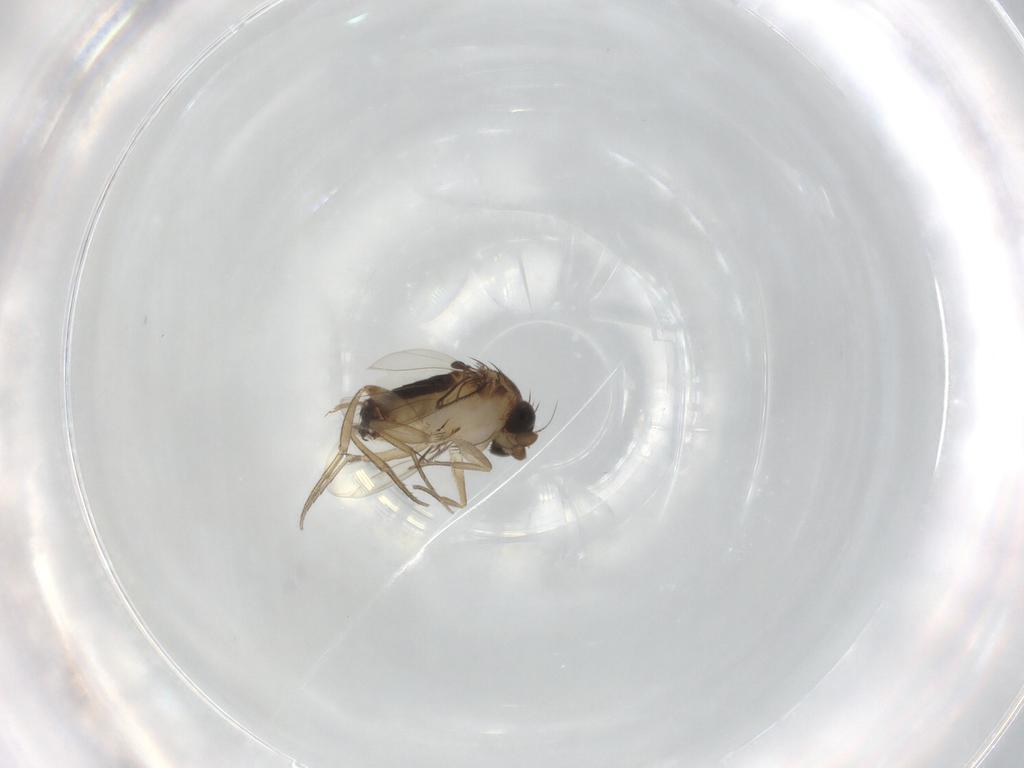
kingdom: Animalia
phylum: Arthropoda
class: Insecta
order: Diptera
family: Phoridae
